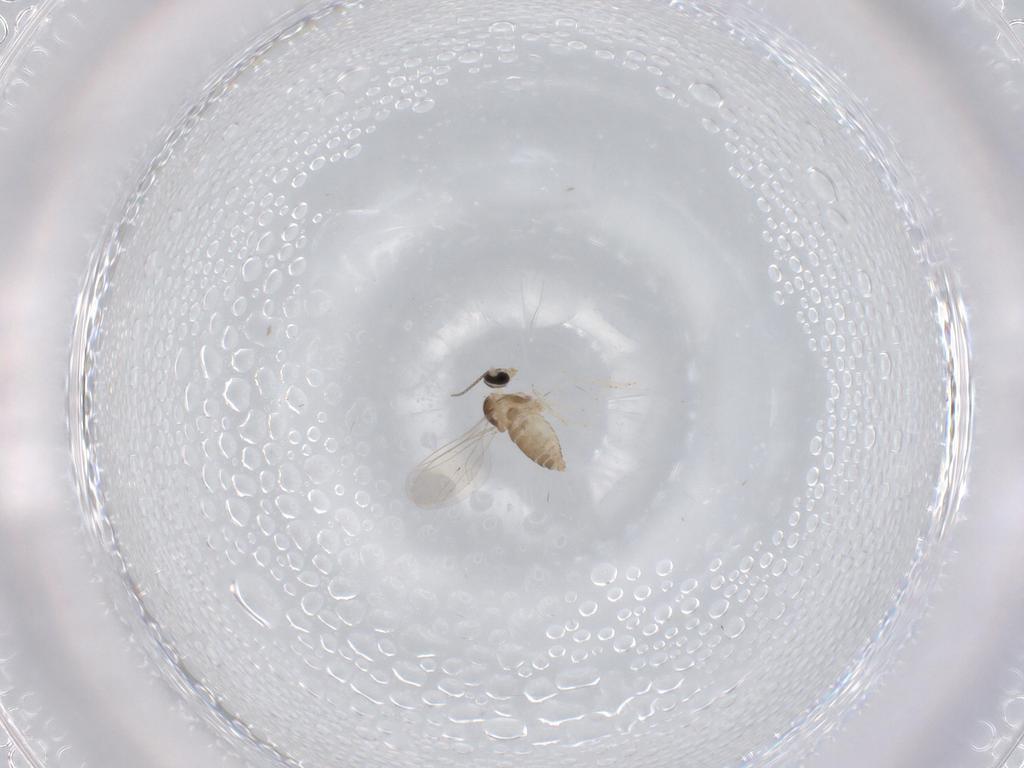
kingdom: Animalia
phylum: Arthropoda
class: Insecta
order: Diptera
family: Cecidomyiidae
